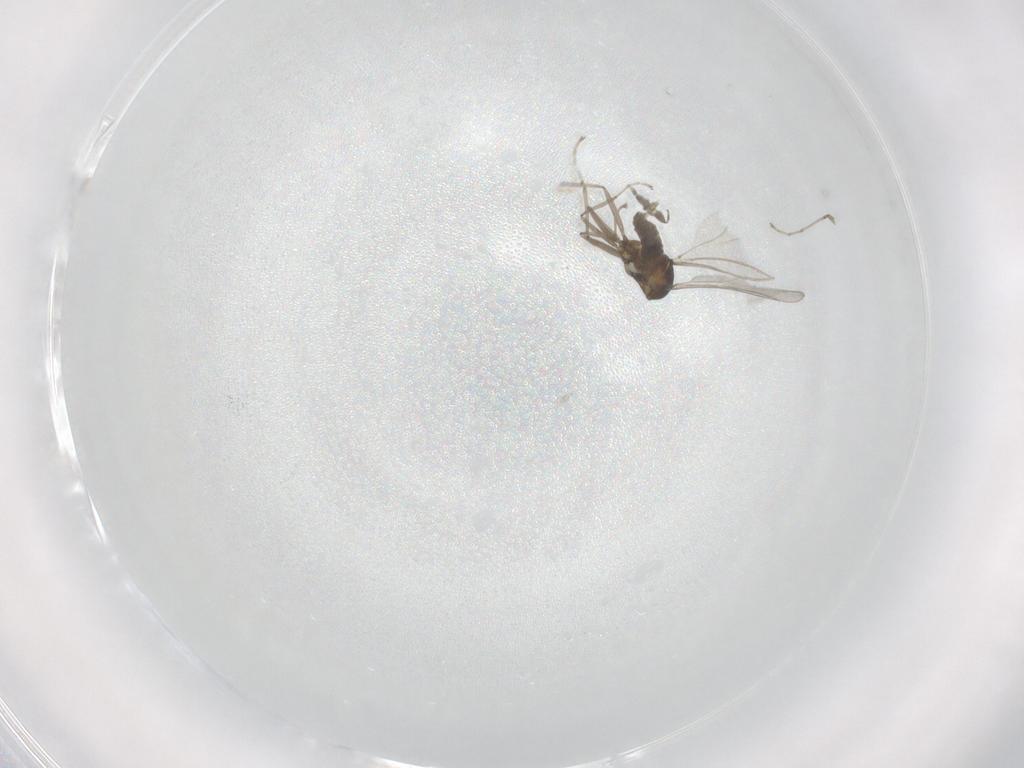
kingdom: Animalia
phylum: Arthropoda
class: Insecta
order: Diptera
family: Cecidomyiidae
